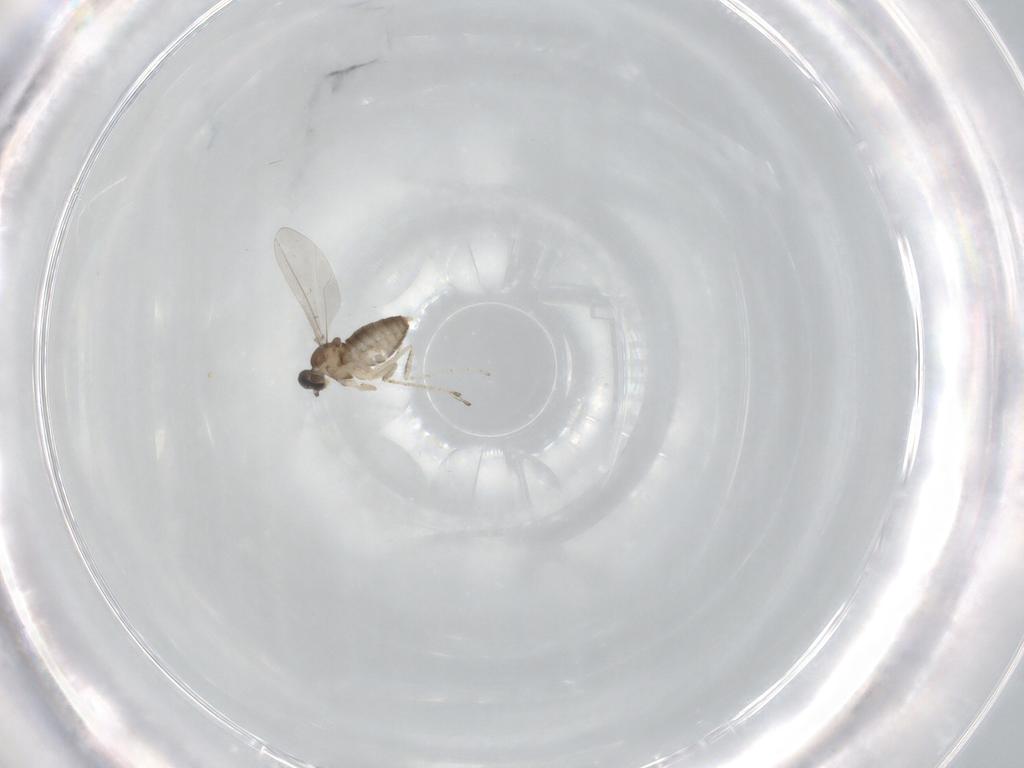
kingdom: Animalia
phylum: Arthropoda
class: Insecta
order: Diptera
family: Cecidomyiidae
